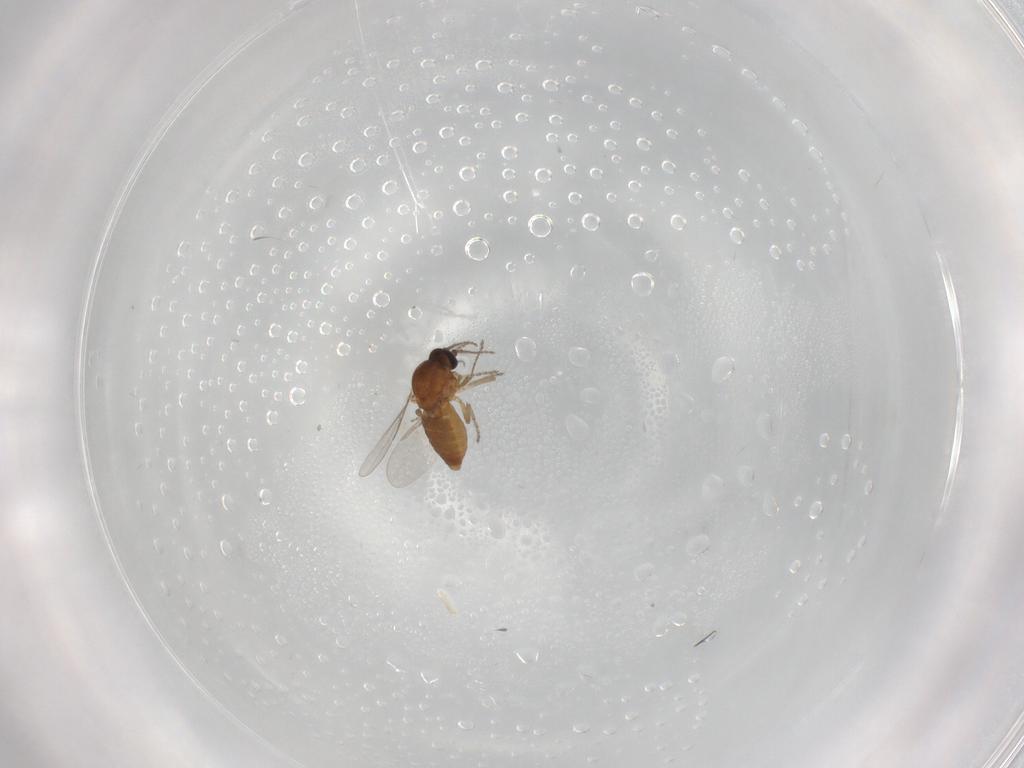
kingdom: Animalia
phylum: Arthropoda
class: Insecta
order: Diptera
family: Ceratopogonidae
